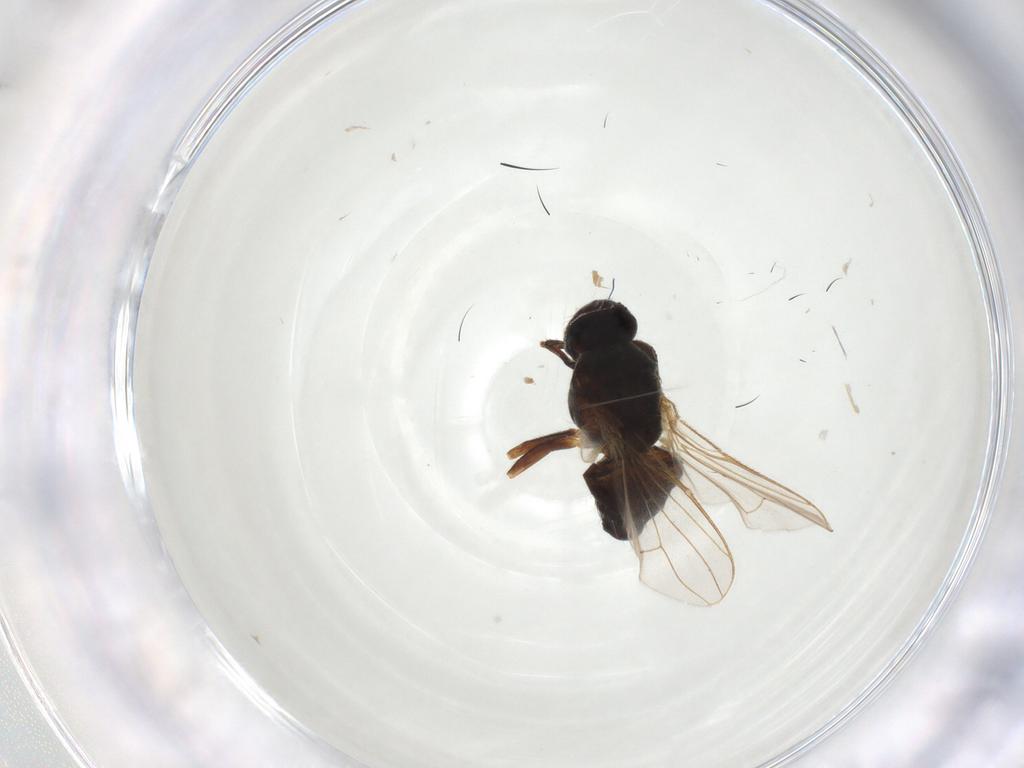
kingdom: Animalia
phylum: Arthropoda
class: Insecta
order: Diptera
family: Muscidae
